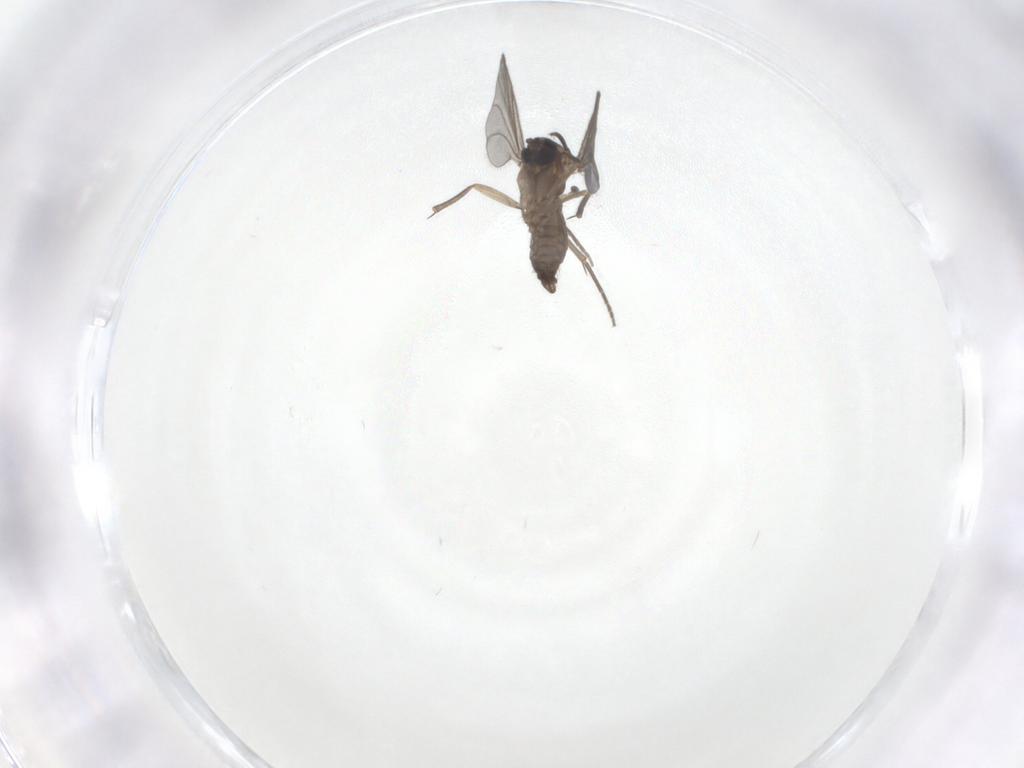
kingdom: Animalia
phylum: Arthropoda
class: Insecta
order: Diptera
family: Sciaridae
